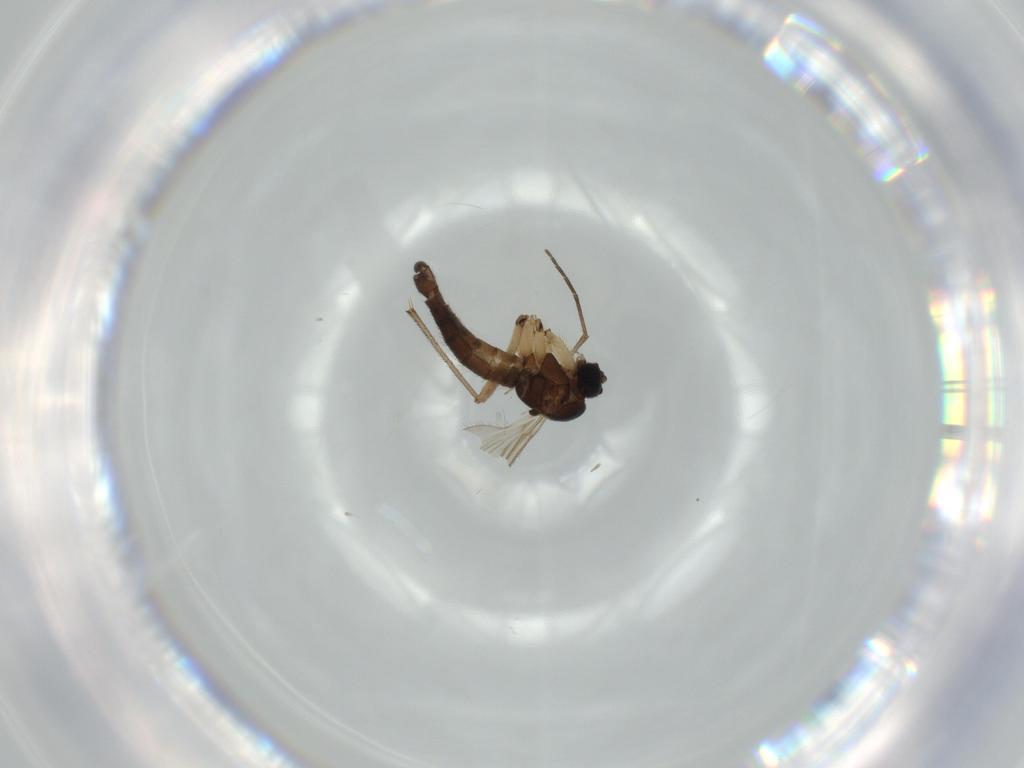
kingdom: Animalia
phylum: Arthropoda
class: Insecta
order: Diptera
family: Sciaridae
